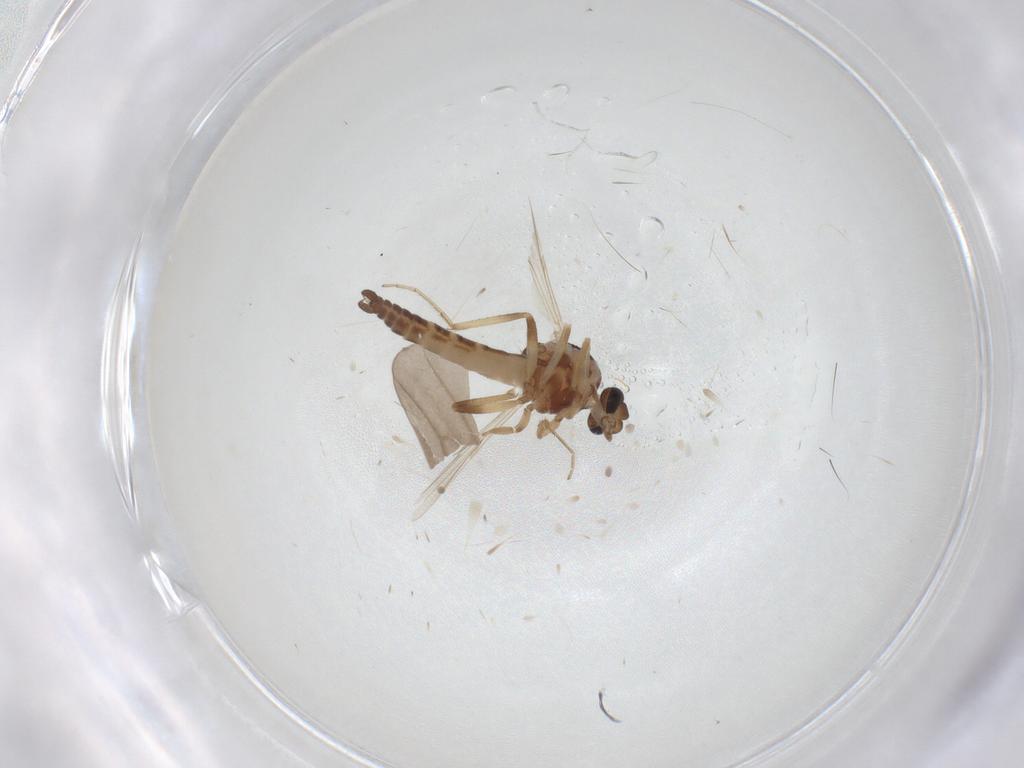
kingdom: Animalia
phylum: Arthropoda
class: Insecta
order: Diptera
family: Ceratopogonidae
